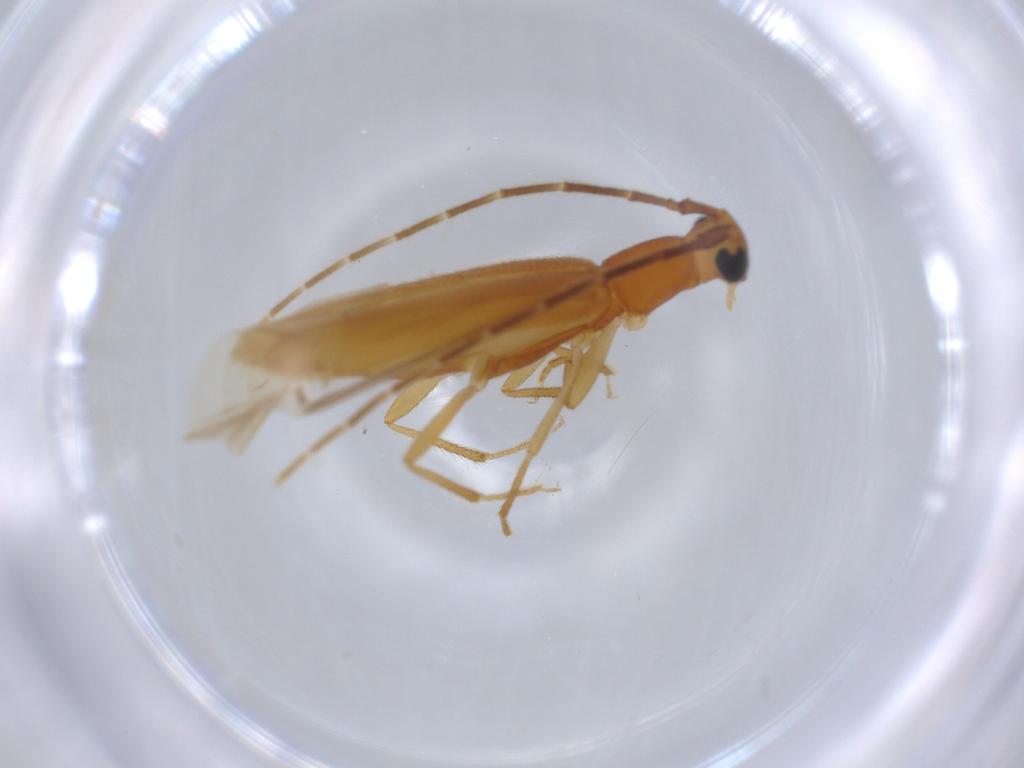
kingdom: Animalia
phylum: Arthropoda
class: Insecta
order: Coleoptera
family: Cerambycidae
